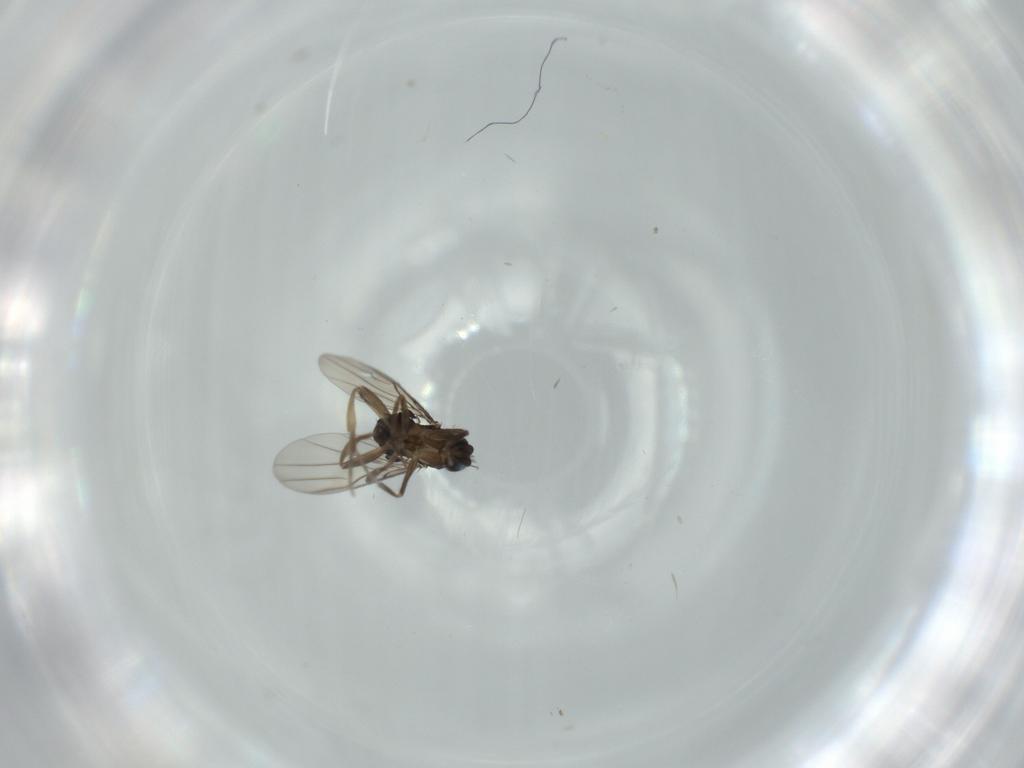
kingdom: Animalia
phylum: Arthropoda
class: Insecta
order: Diptera
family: Phoridae
